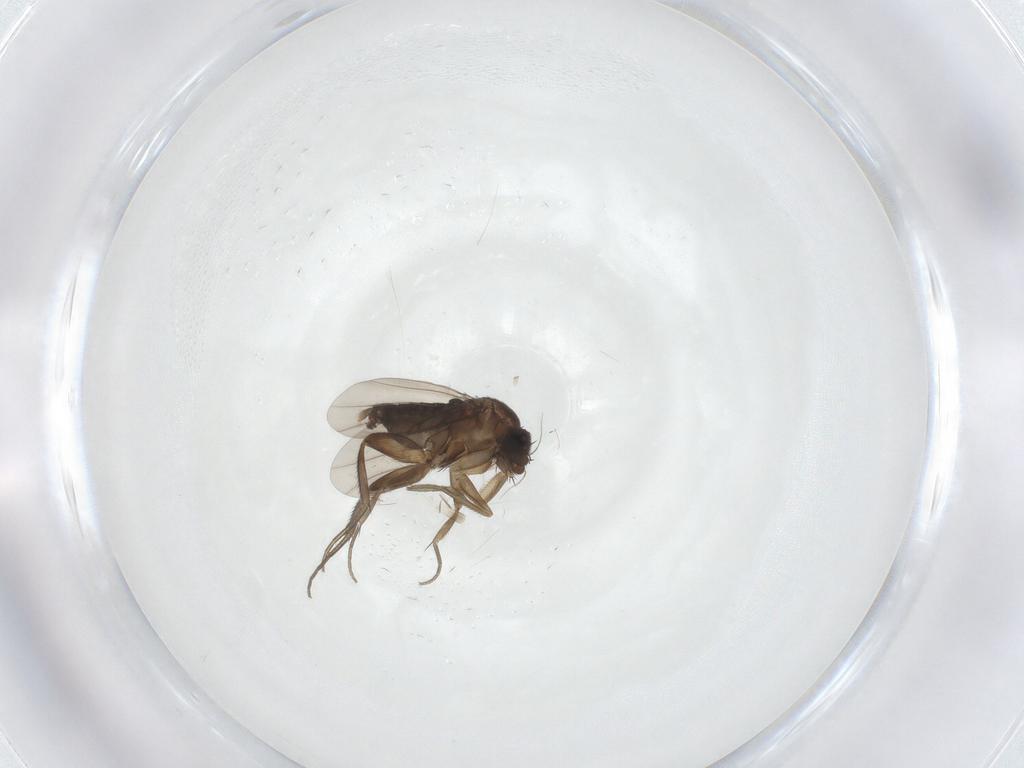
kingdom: Animalia
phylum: Arthropoda
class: Insecta
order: Diptera
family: Phoridae
